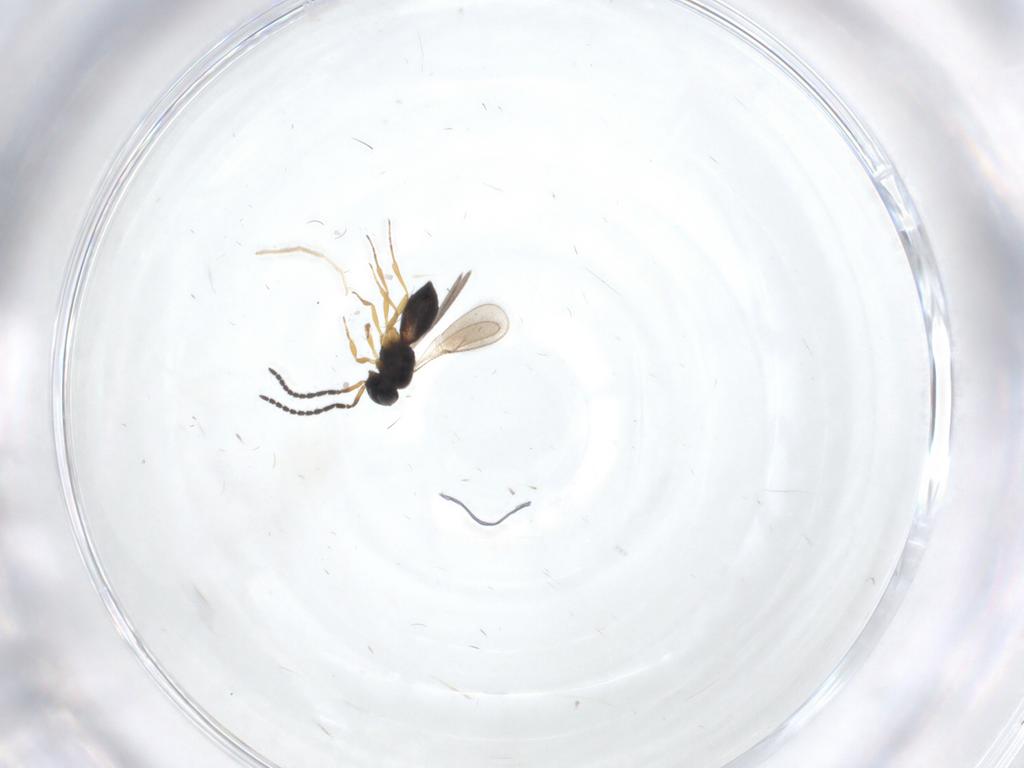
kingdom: Animalia
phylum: Arthropoda
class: Insecta
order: Hymenoptera
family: Scelionidae
